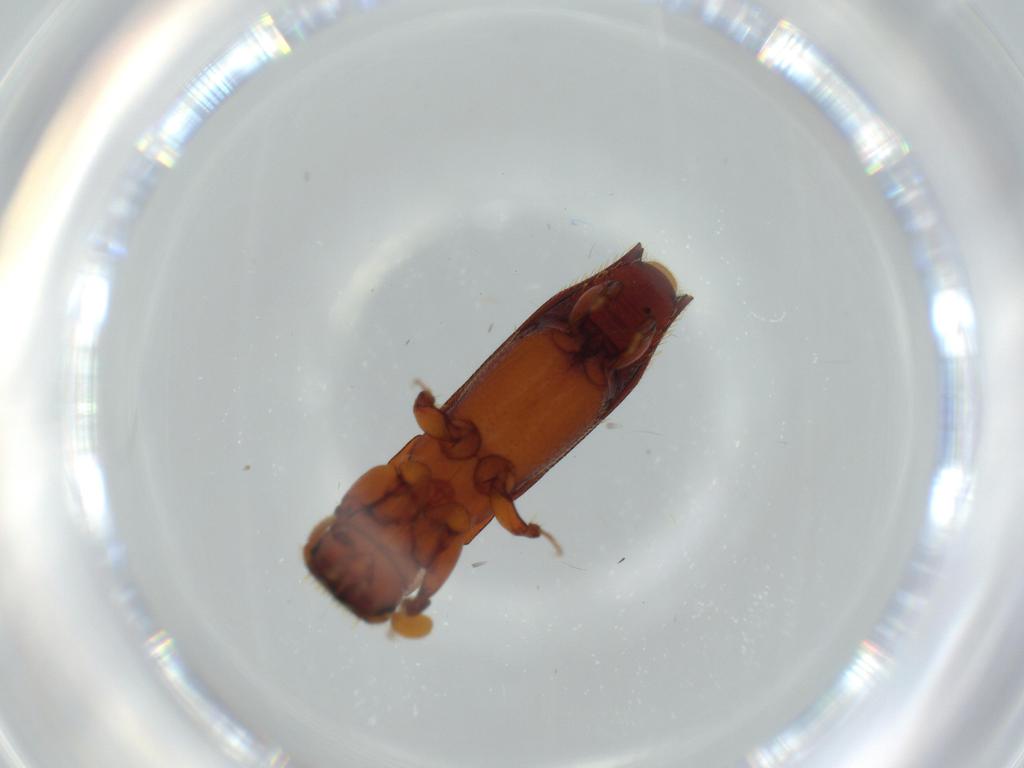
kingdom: Animalia
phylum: Arthropoda
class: Insecta
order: Coleoptera
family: Curculionidae
